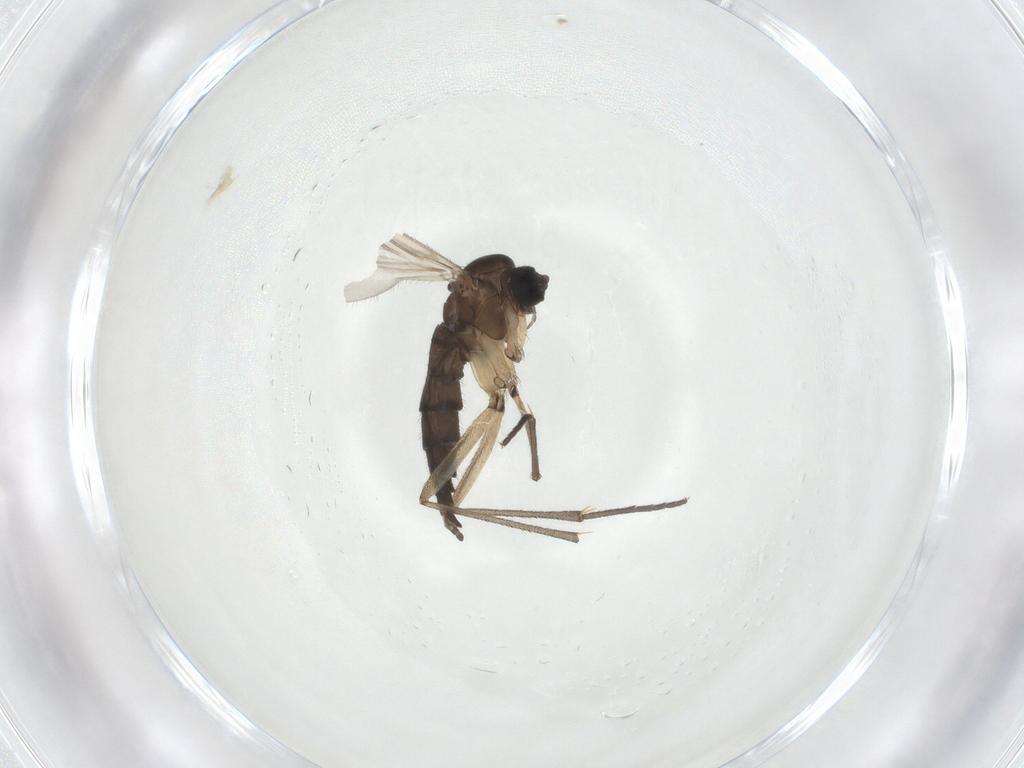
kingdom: Animalia
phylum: Arthropoda
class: Insecta
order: Diptera
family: Sciaridae
